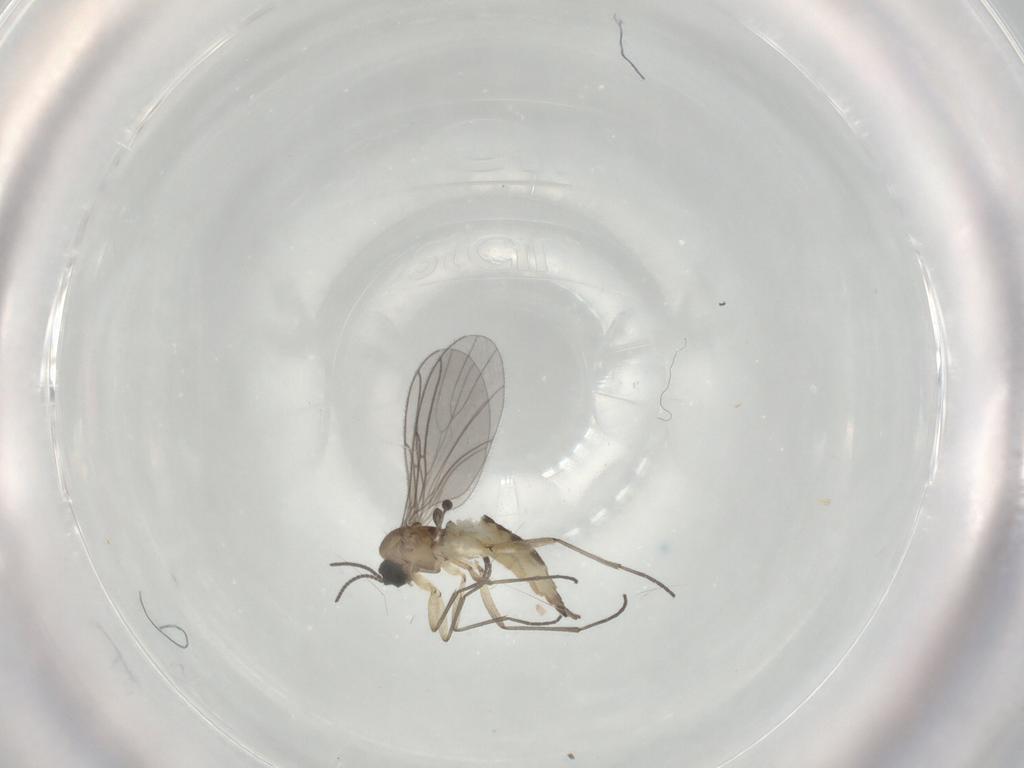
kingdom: Animalia
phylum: Arthropoda
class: Insecta
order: Diptera
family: Sciaridae
